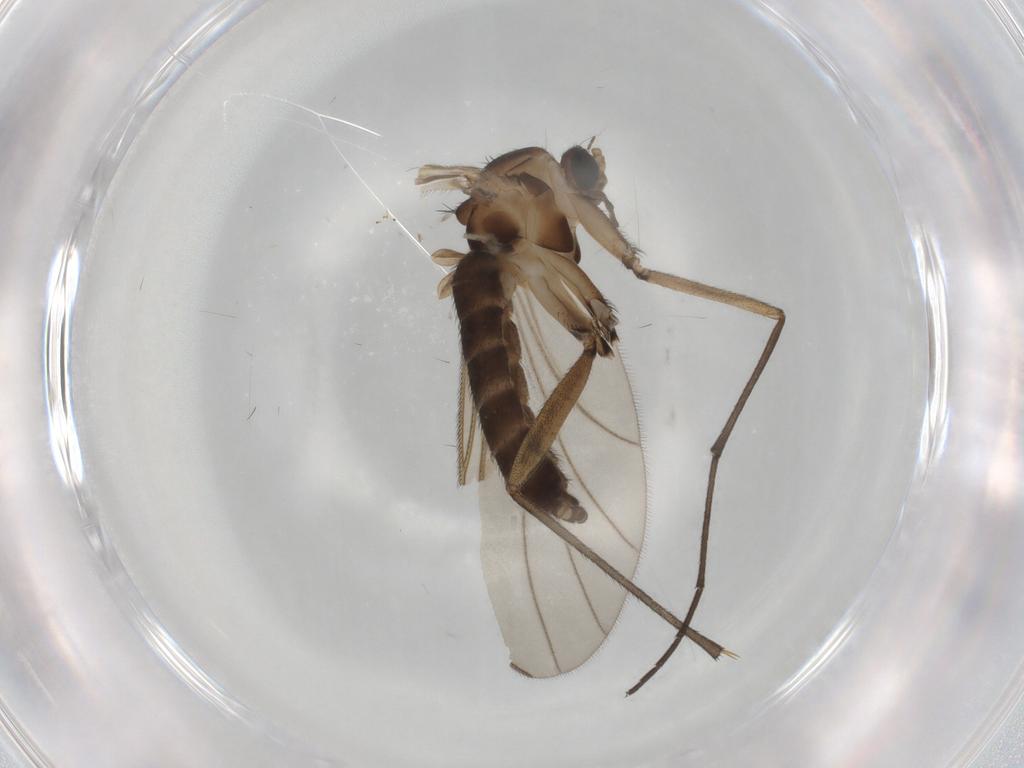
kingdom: Animalia
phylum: Arthropoda
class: Insecta
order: Diptera
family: Sciaridae
